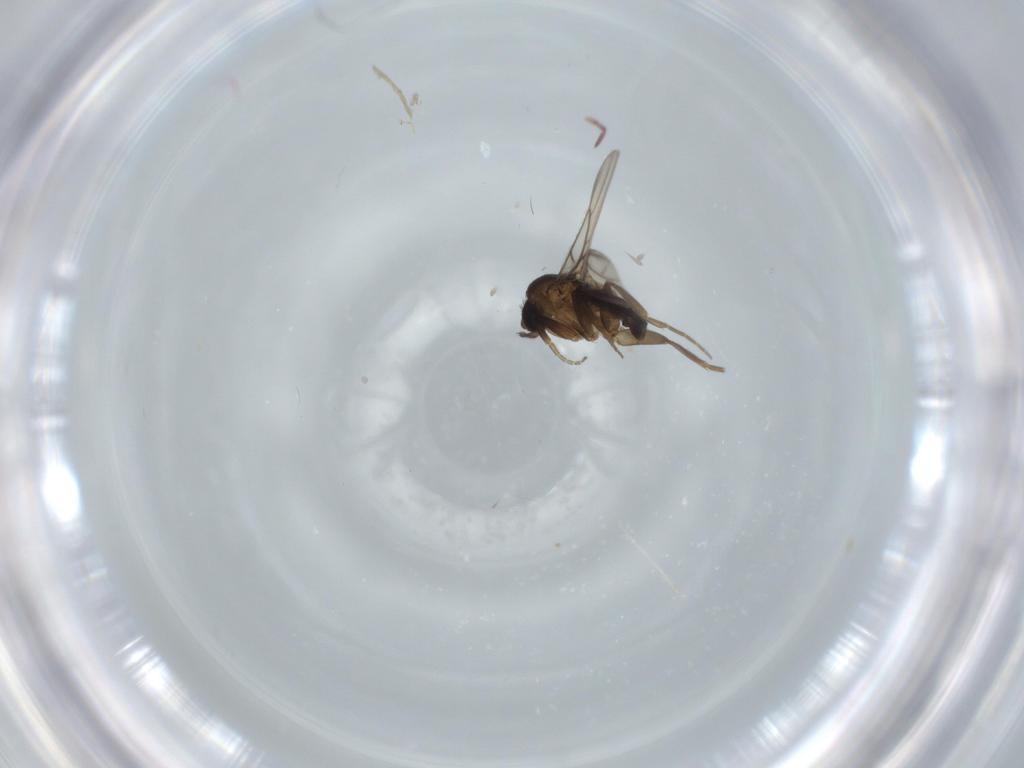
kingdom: Animalia
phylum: Arthropoda
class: Insecta
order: Diptera
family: Phoridae
